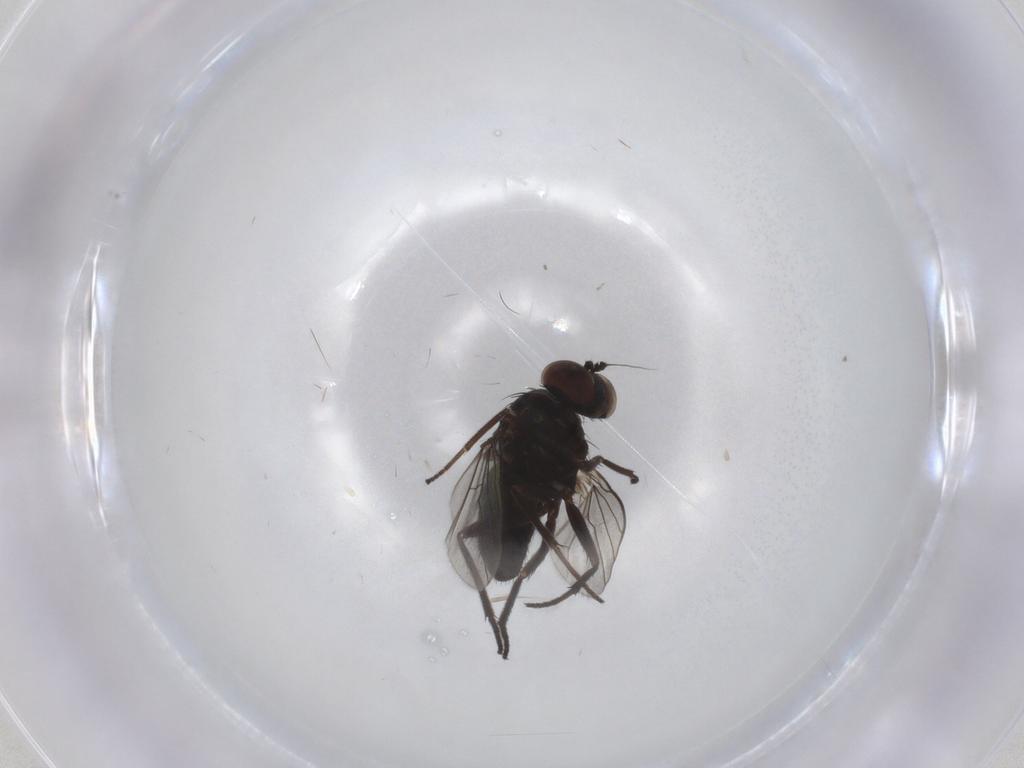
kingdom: Animalia
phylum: Arthropoda
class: Insecta
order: Diptera
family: Dolichopodidae
